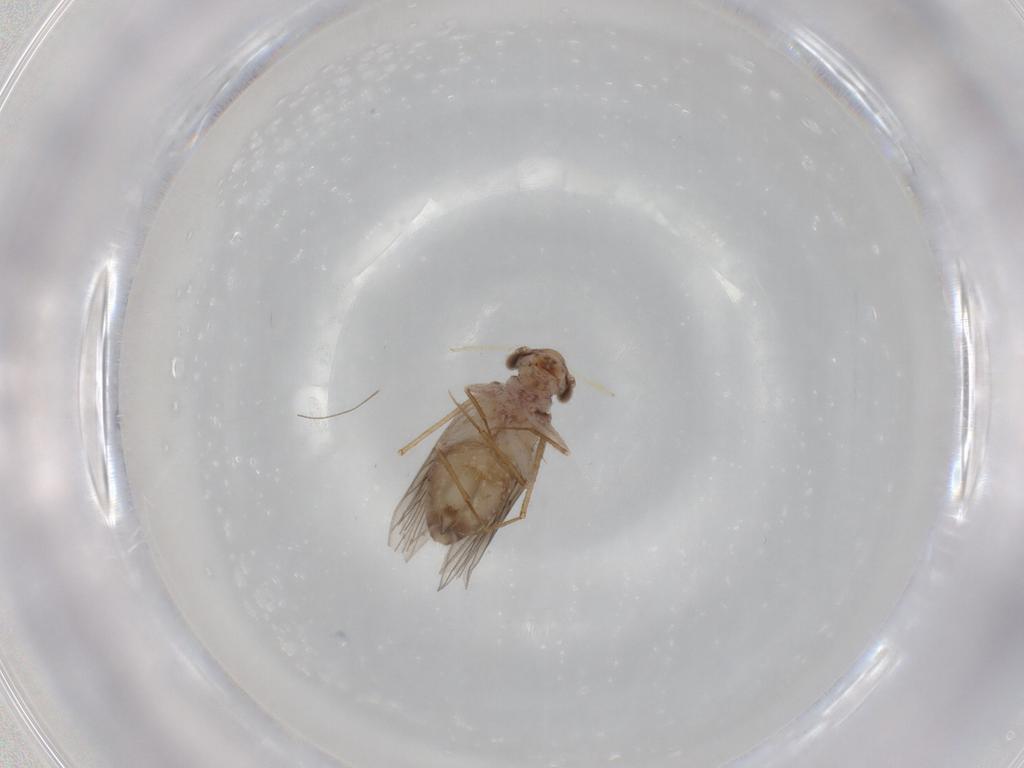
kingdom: Animalia
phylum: Arthropoda
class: Insecta
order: Psocodea
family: Lepidopsocidae
